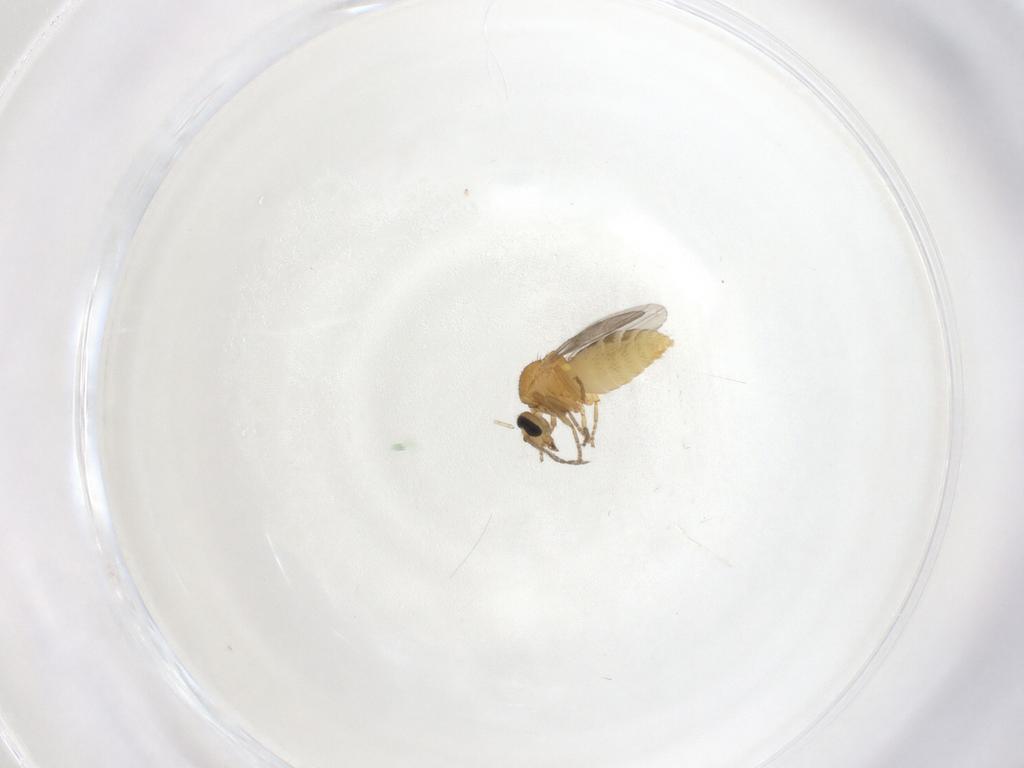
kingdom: Animalia
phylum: Arthropoda
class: Insecta
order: Diptera
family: Ceratopogonidae
